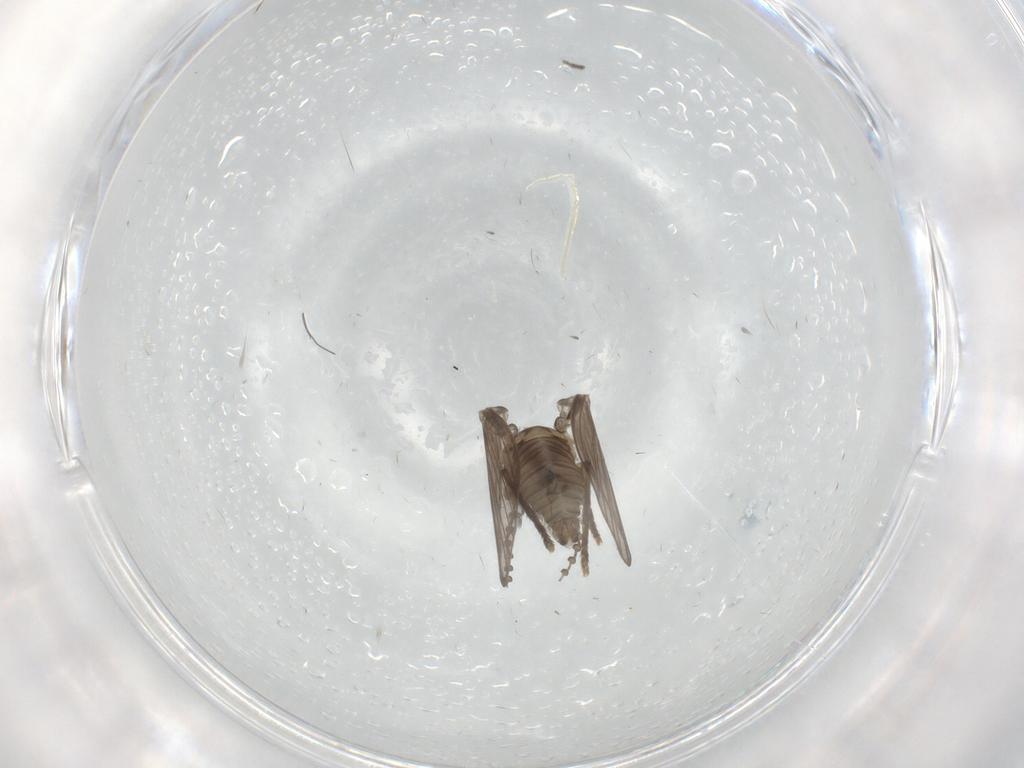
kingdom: Animalia
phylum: Arthropoda
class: Insecta
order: Diptera
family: Psychodidae
